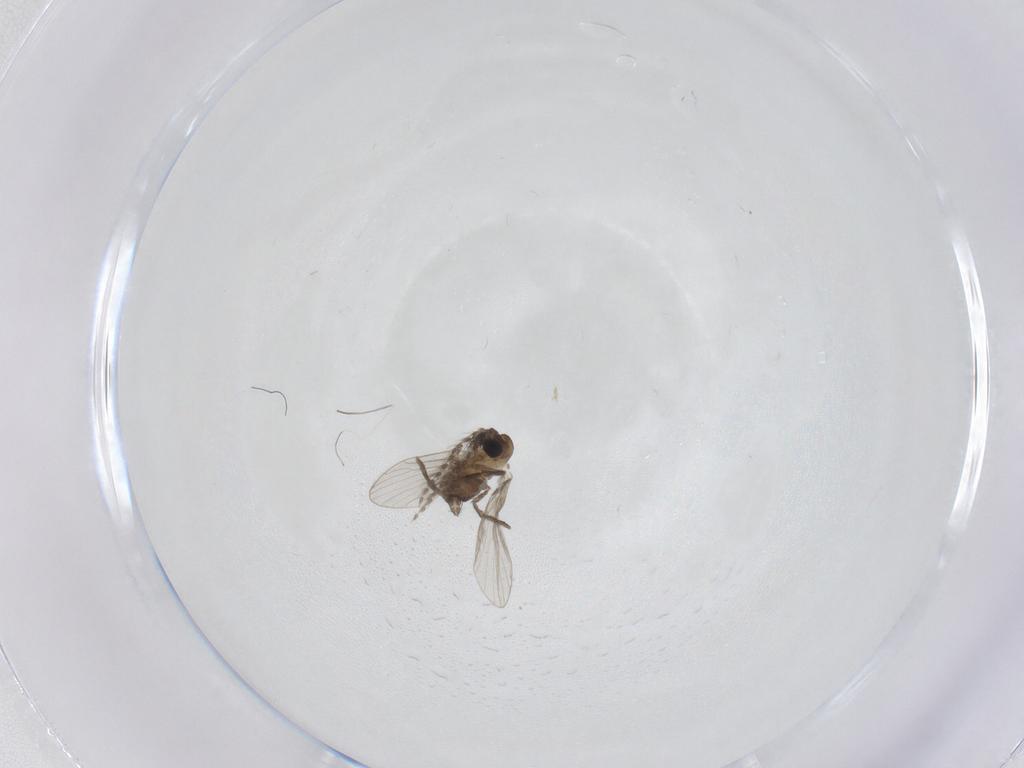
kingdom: Animalia
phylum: Arthropoda
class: Insecta
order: Diptera
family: Psychodidae
